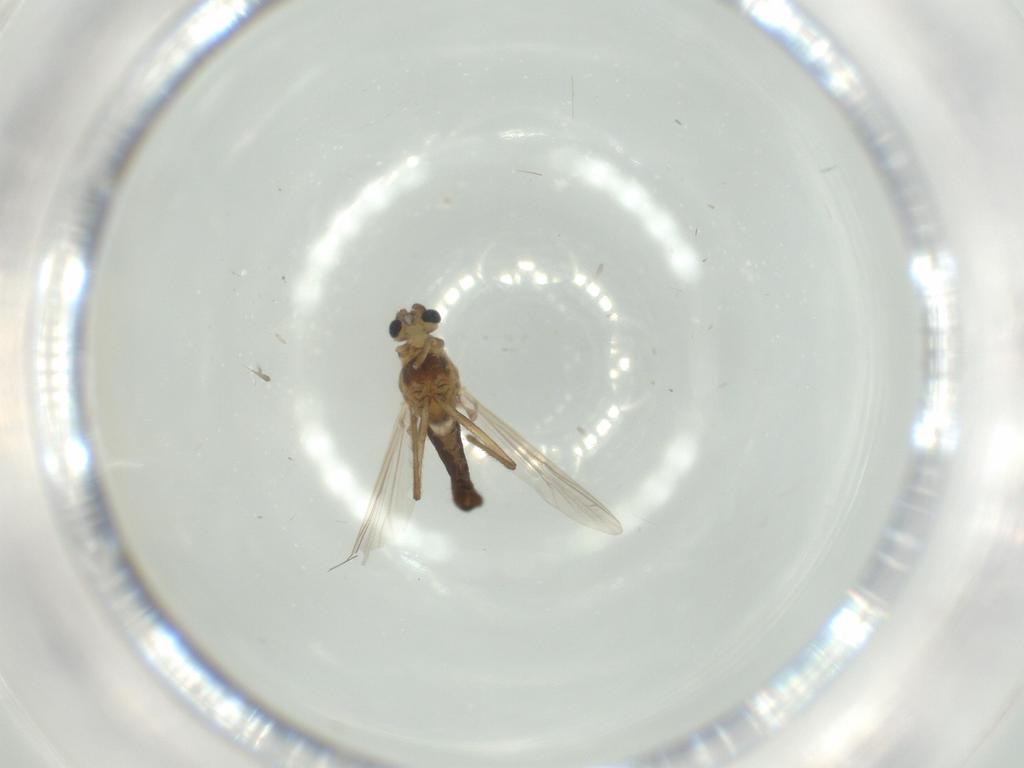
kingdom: Animalia
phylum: Arthropoda
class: Insecta
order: Diptera
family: Chironomidae
